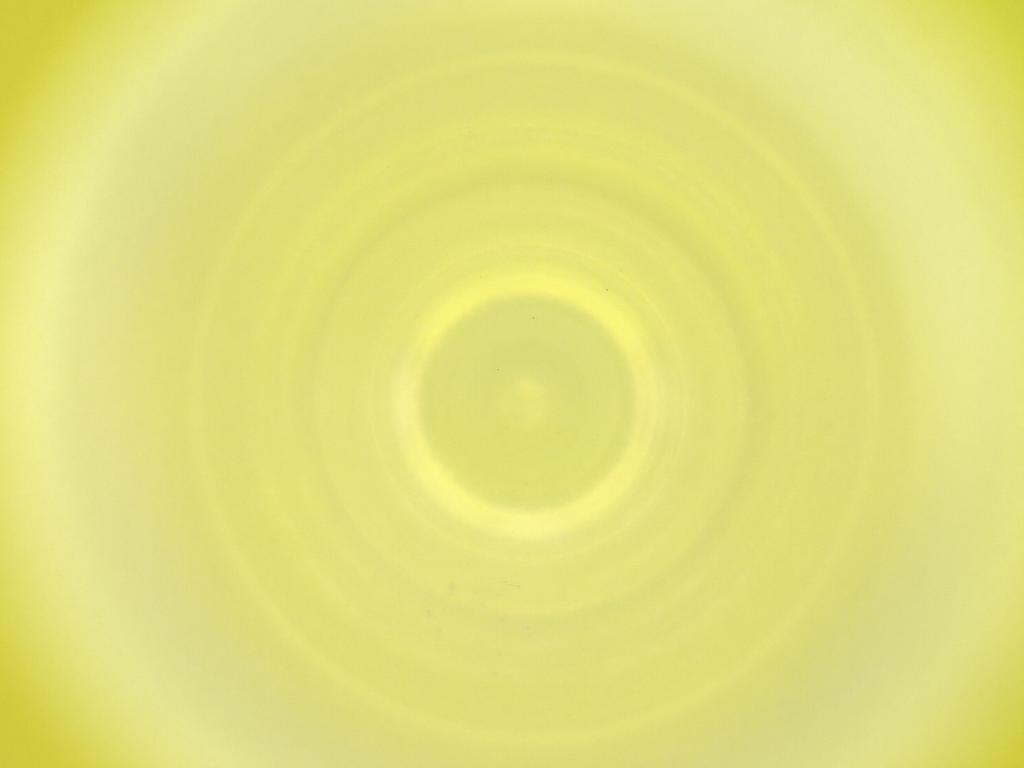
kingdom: Animalia
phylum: Arthropoda
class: Insecta
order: Diptera
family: Cecidomyiidae
